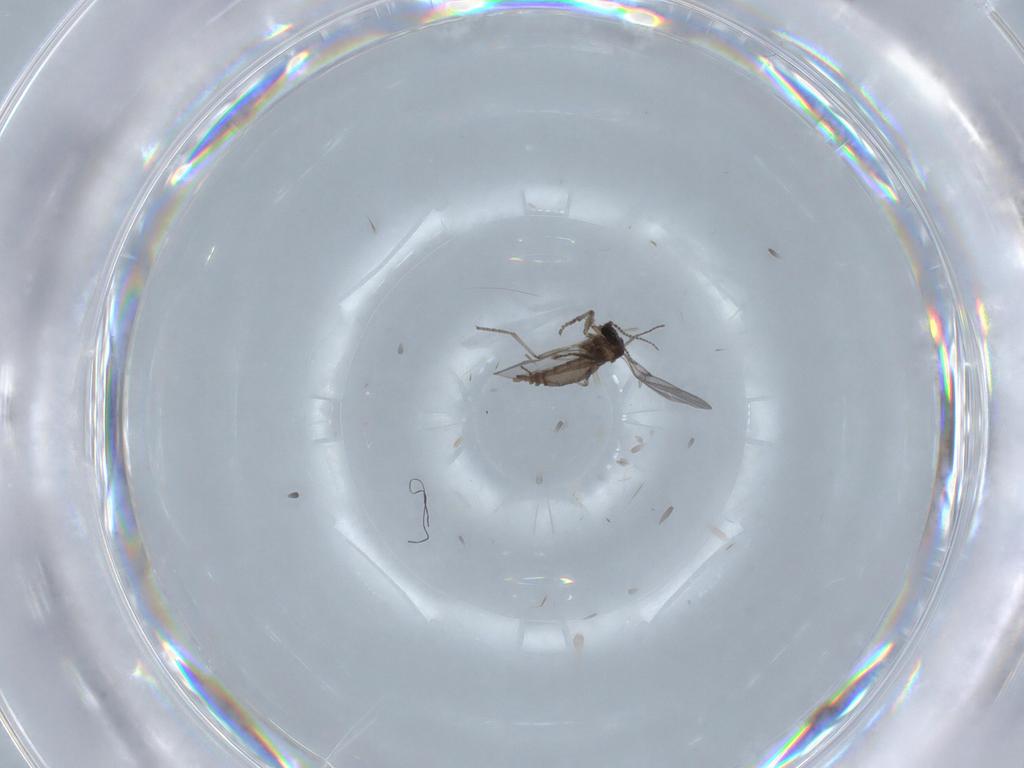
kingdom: Animalia
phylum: Arthropoda
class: Insecta
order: Diptera
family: Sciaridae
